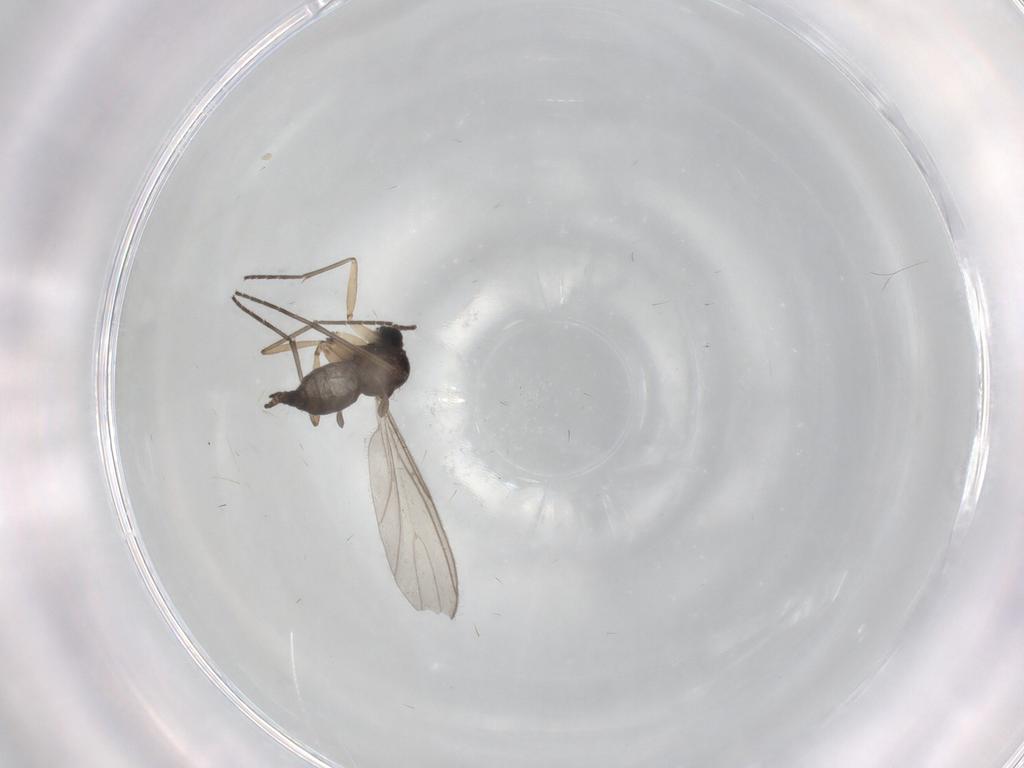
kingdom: Animalia
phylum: Arthropoda
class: Insecta
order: Diptera
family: Sciaridae
